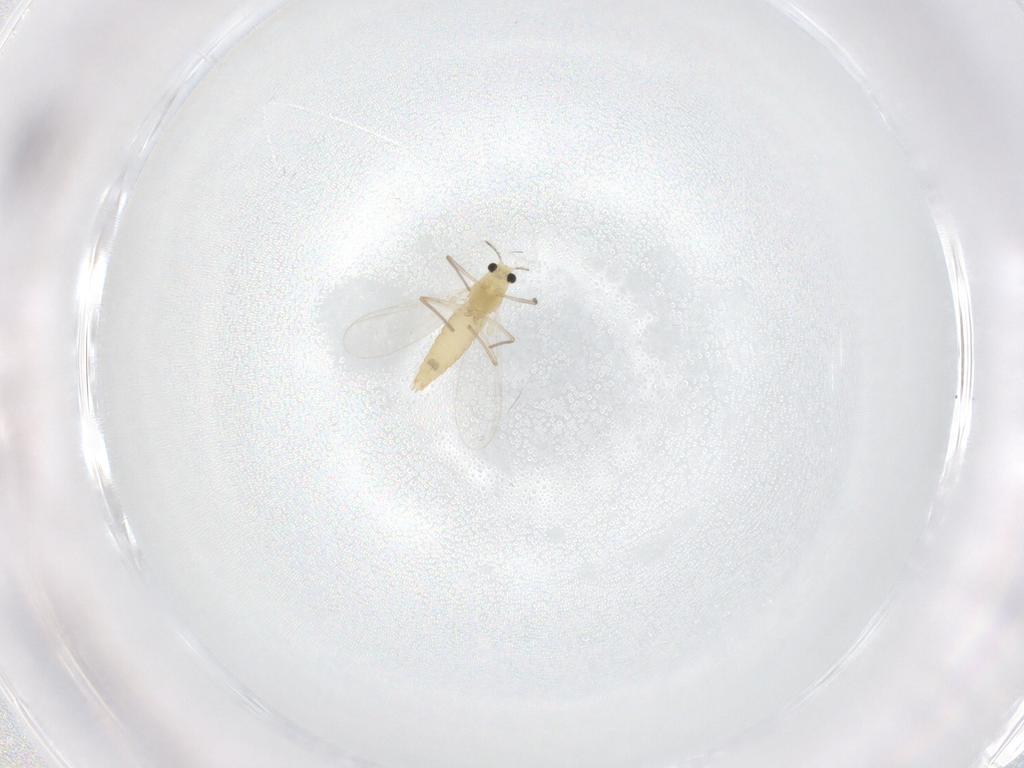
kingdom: Animalia
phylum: Arthropoda
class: Insecta
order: Diptera
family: Chironomidae
